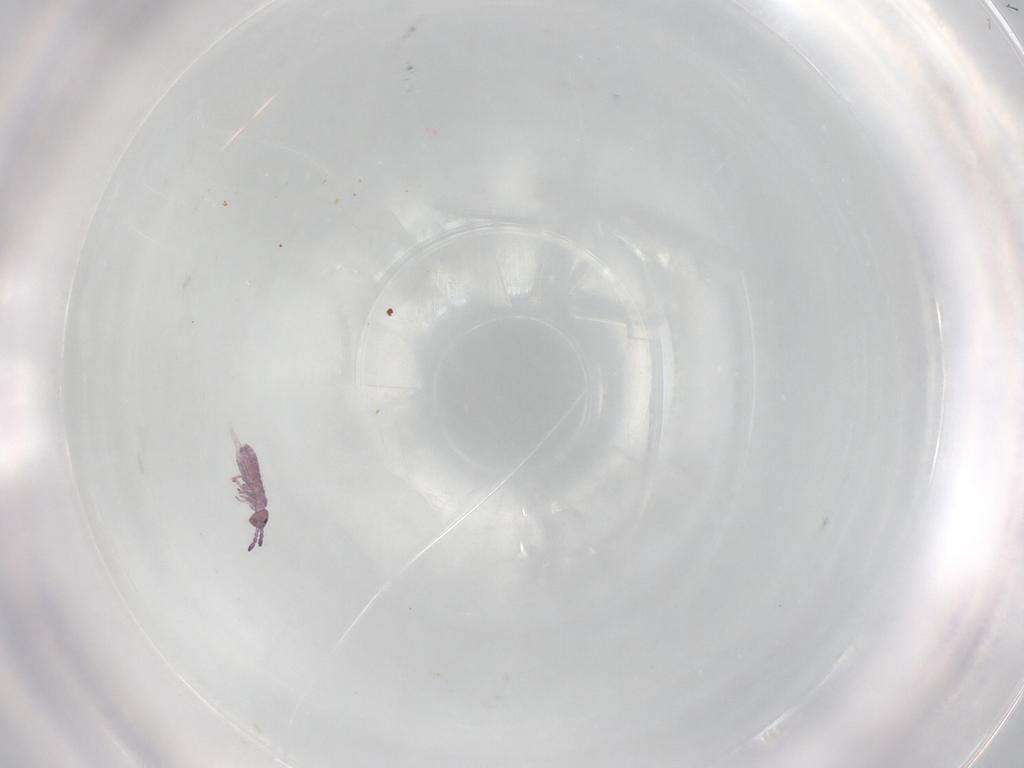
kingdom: Animalia
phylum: Arthropoda
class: Collembola
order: Entomobryomorpha
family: Isotomidae
